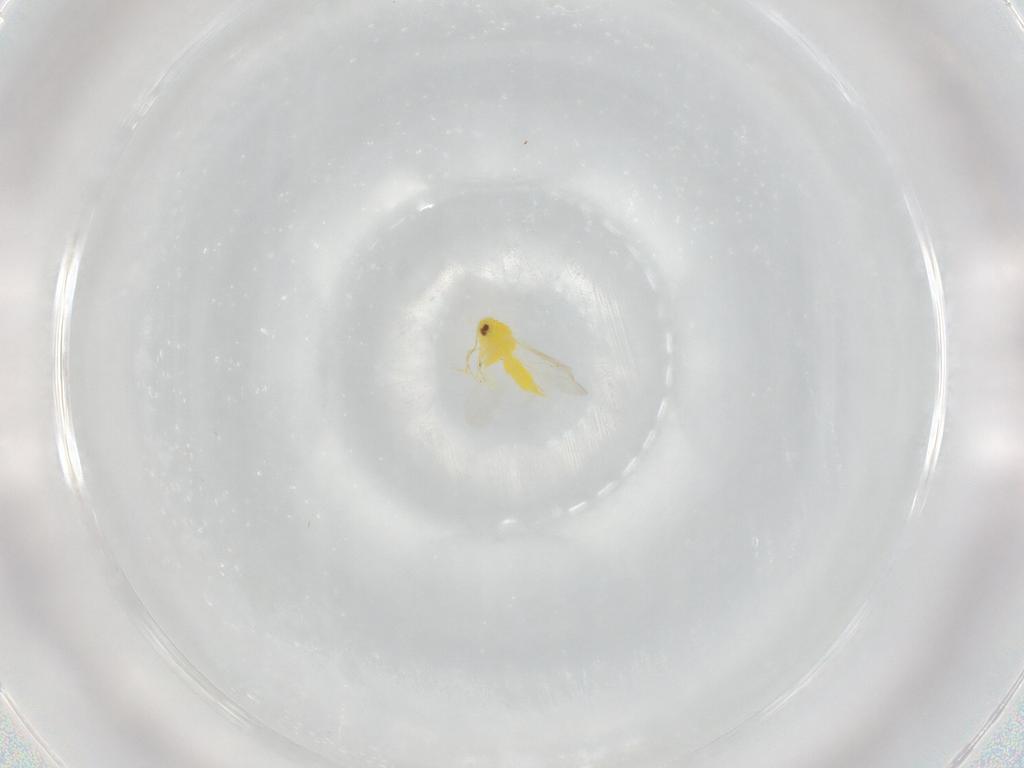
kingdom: Animalia
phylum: Arthropoda
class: Insecta
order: Hemiptera
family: Aleyrodidae
